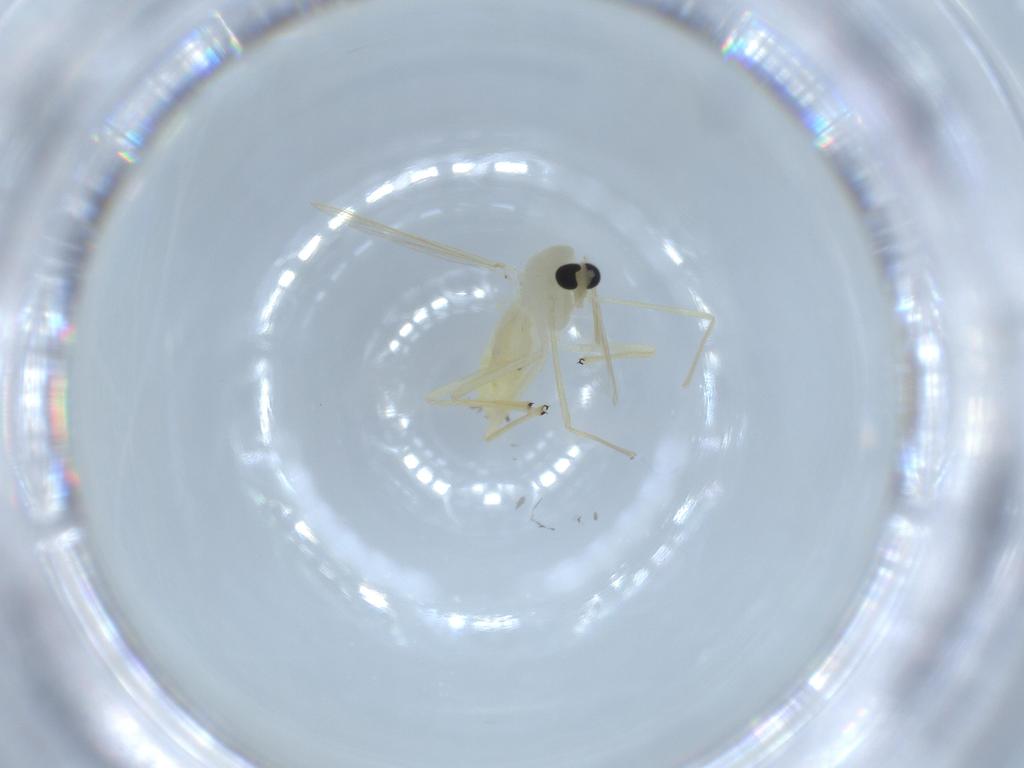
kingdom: Animalia
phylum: Arthropoda
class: Insecta
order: Diptera
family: Chironomidae
